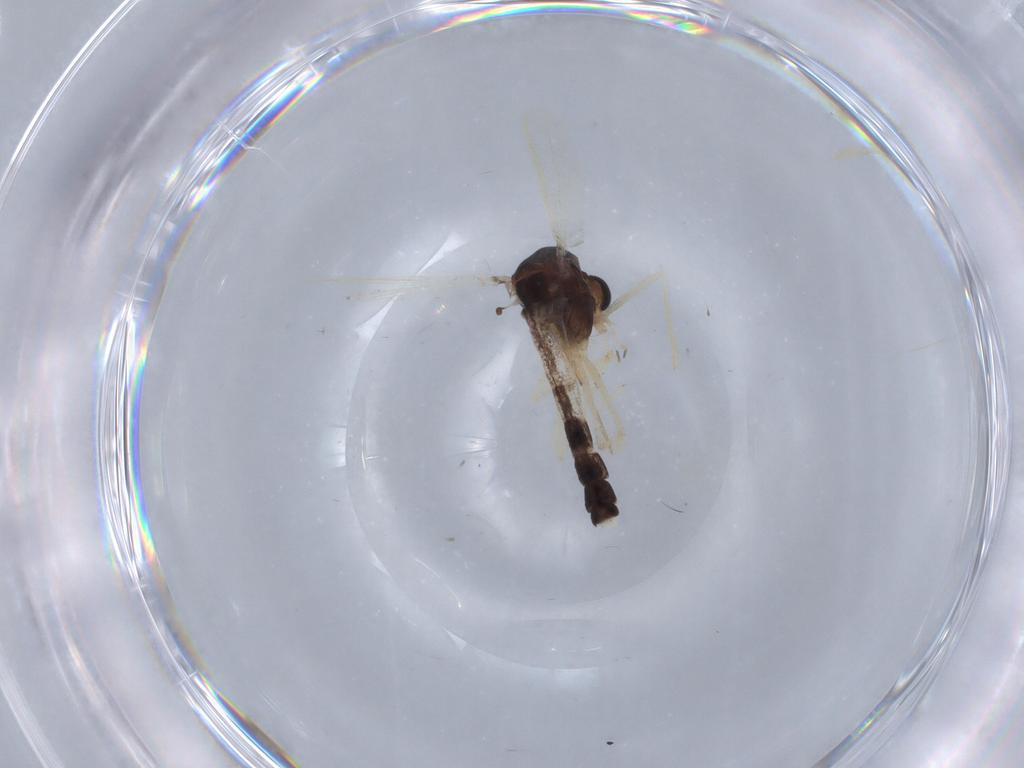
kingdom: Animalia
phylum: Arthropoda
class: Insecta
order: Diptera
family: Chironomidae
